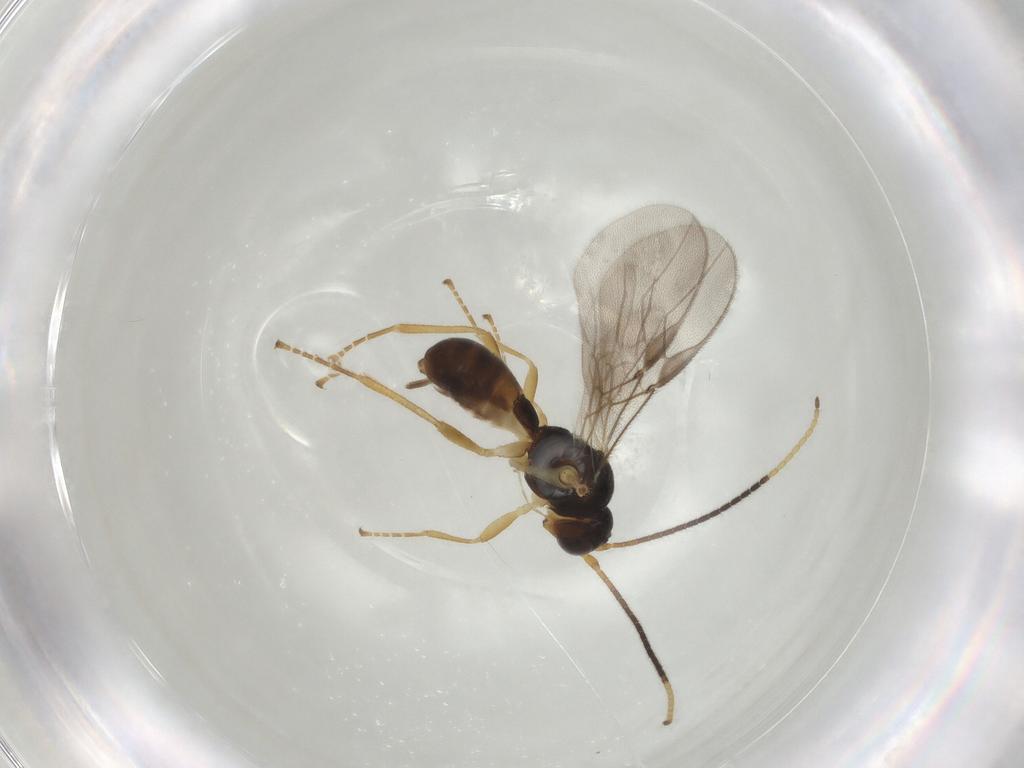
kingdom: Animalia
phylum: Arthropoda
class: Insecta
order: Hymenoptera
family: Braconidae
